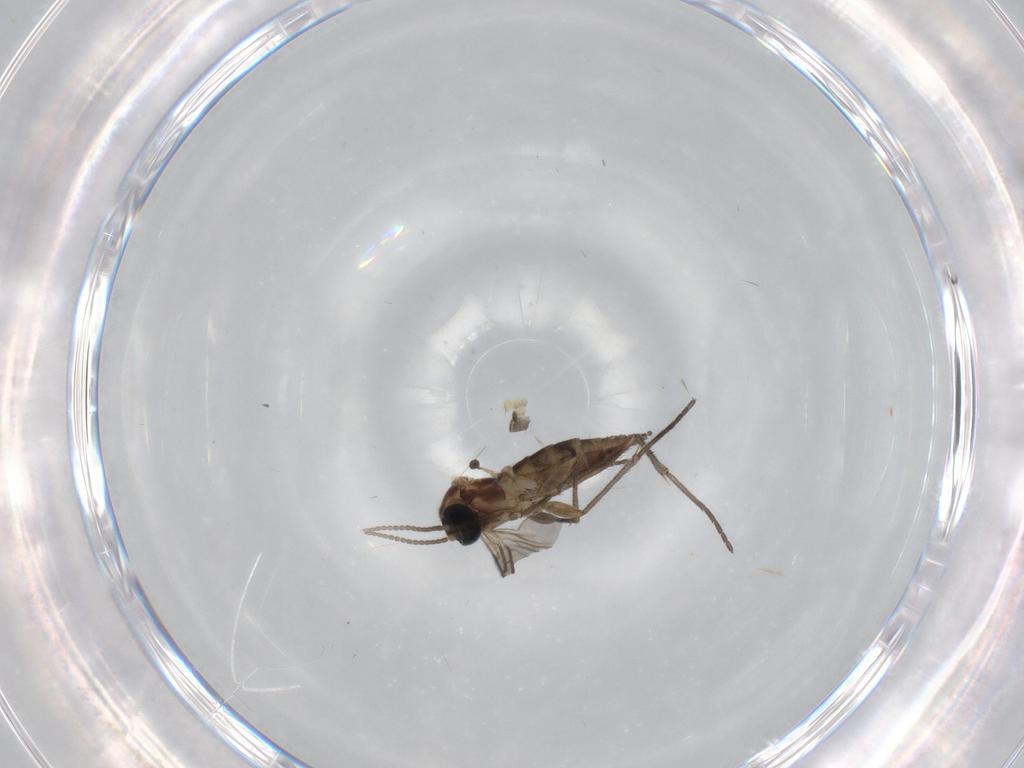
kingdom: Animalia
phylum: Arthropoda
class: Insecta
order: Diptera
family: Sciaridae
